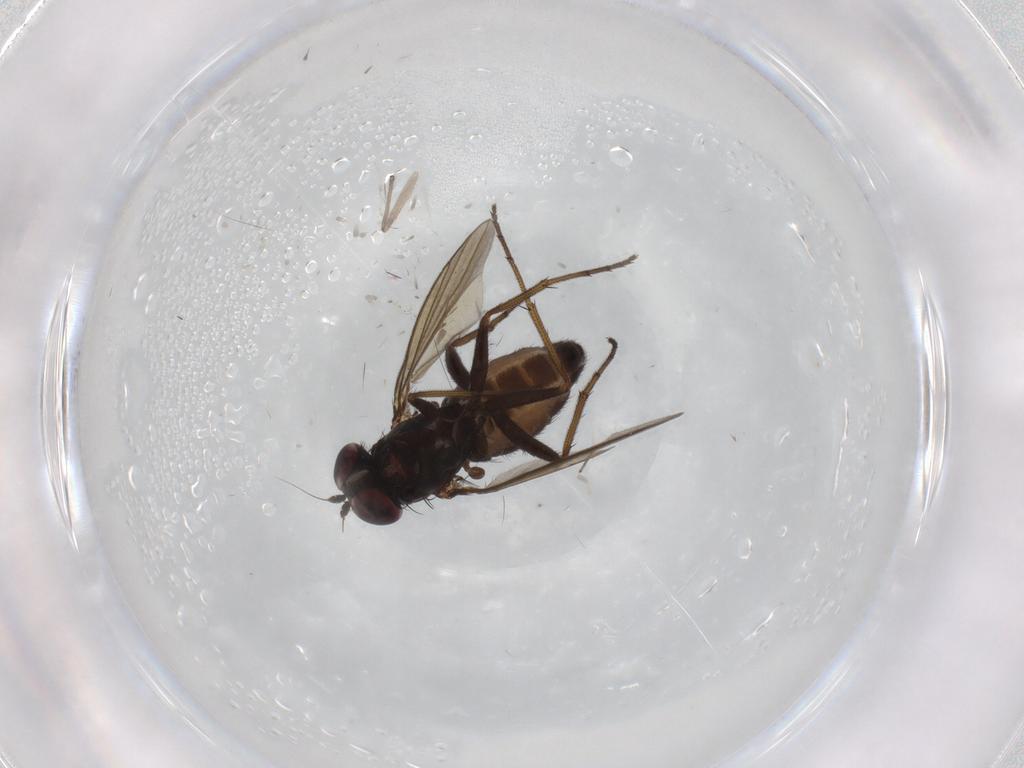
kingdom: Animalia
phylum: Arthropoda
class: Insecta
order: Diptera
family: Dolichopodidae
